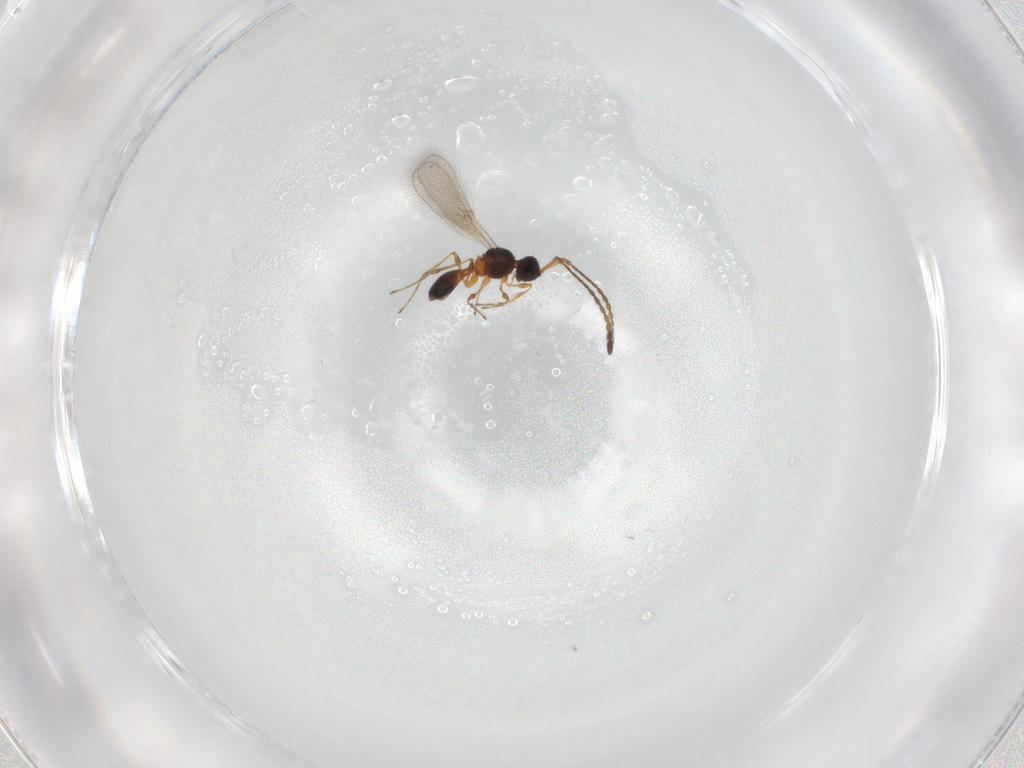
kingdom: Animalia
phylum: Arthropoda
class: Insecta
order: Hymenoptera
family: Diapriidae
